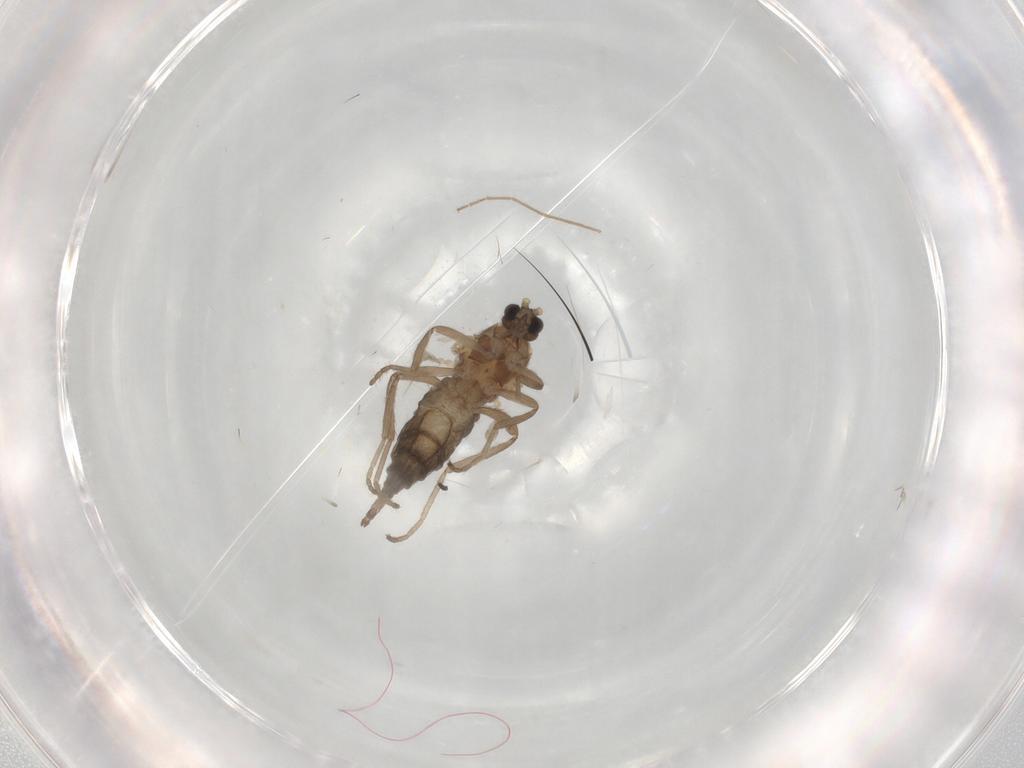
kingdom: Animalia
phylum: Arthropoda
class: Insecta
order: Diptera
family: Chironomidae
